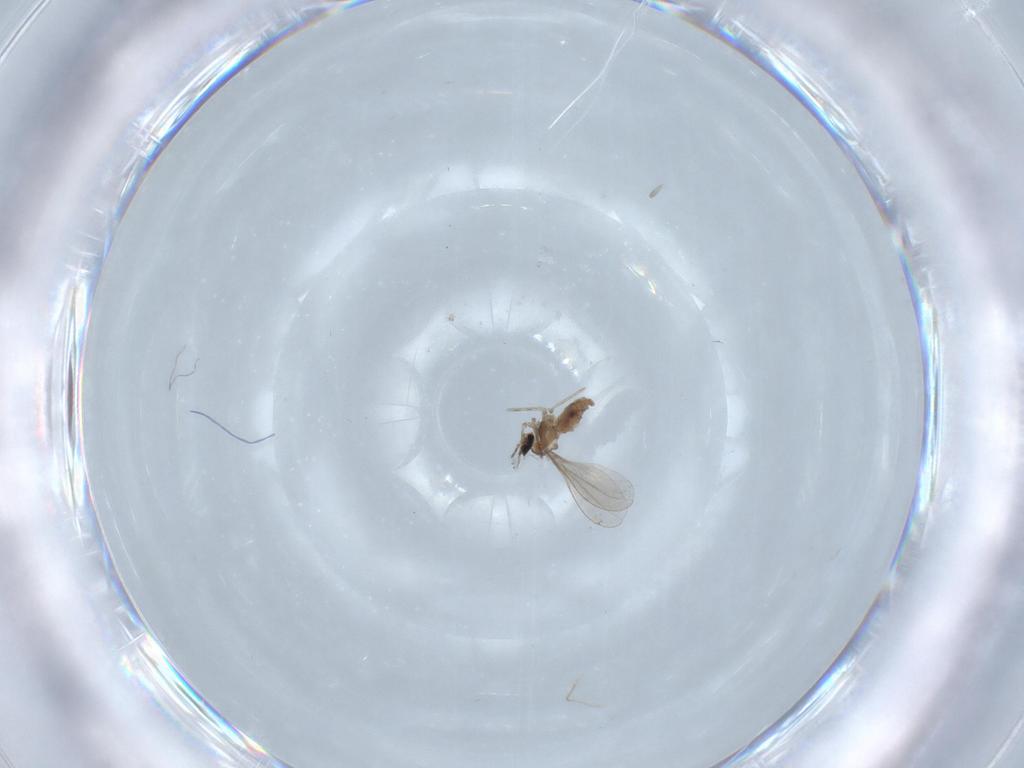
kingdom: Animalia
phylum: Arthropoda
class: Insecta
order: Diptera
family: Cecidomyiidae
